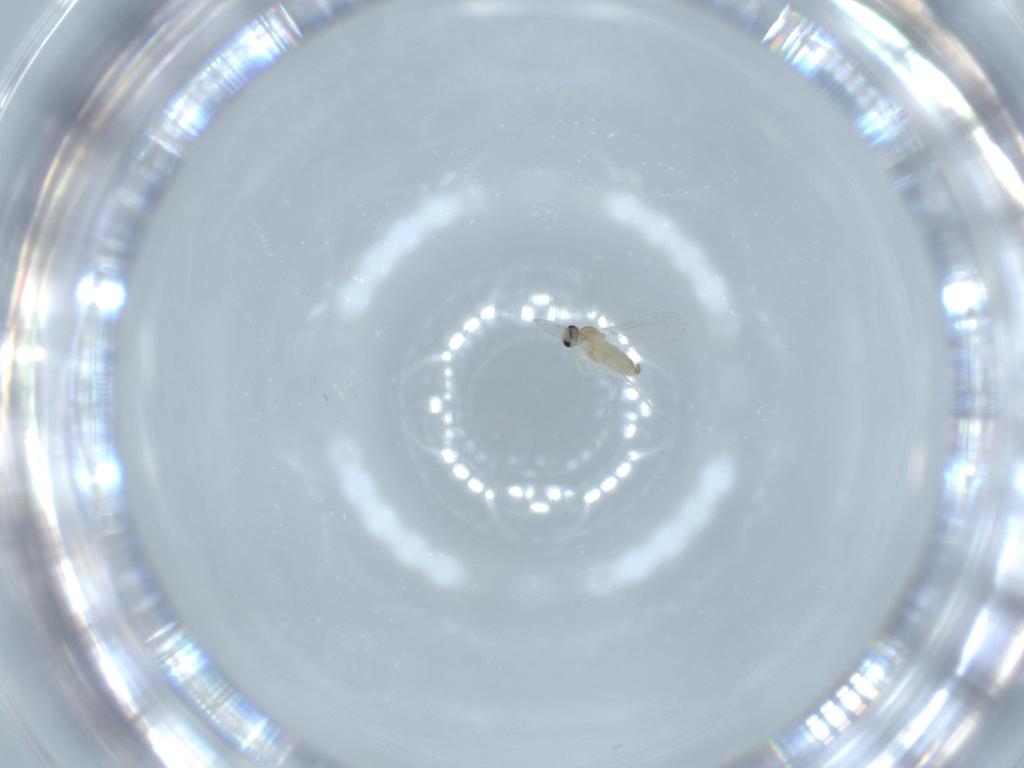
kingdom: Animalia
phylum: Arthropoda
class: Insecta
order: Diptera
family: Cecidomyiidae
